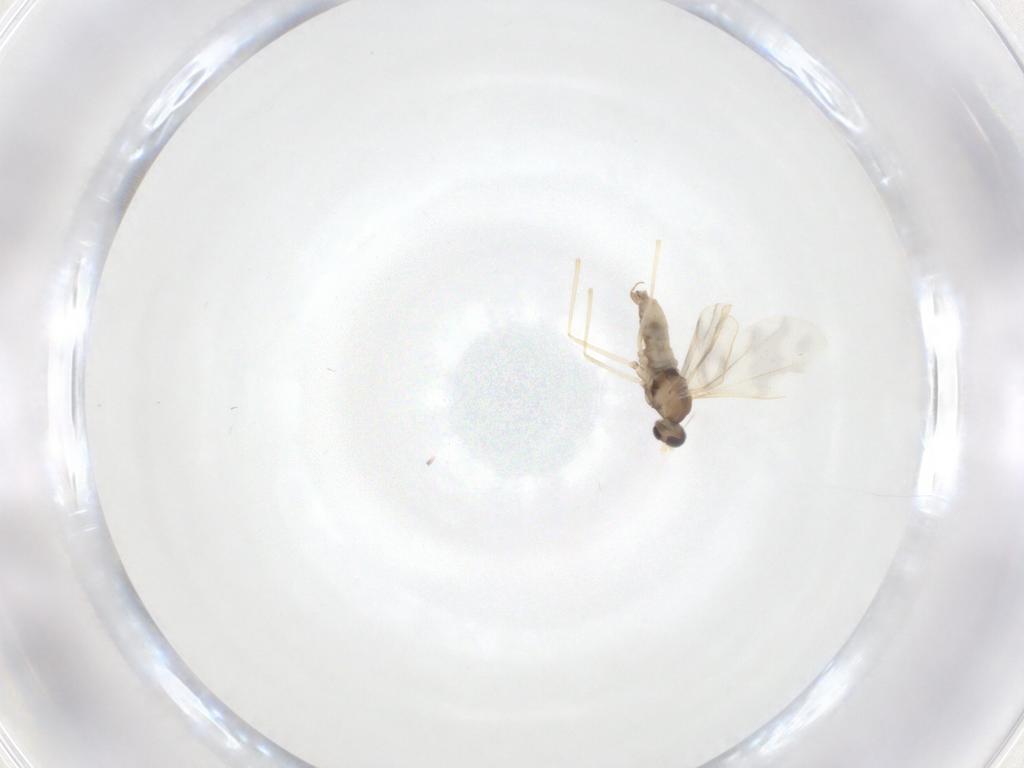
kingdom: Animalia
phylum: Arthropoda
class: Insecta
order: Diptera
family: Cecidomyiidae
